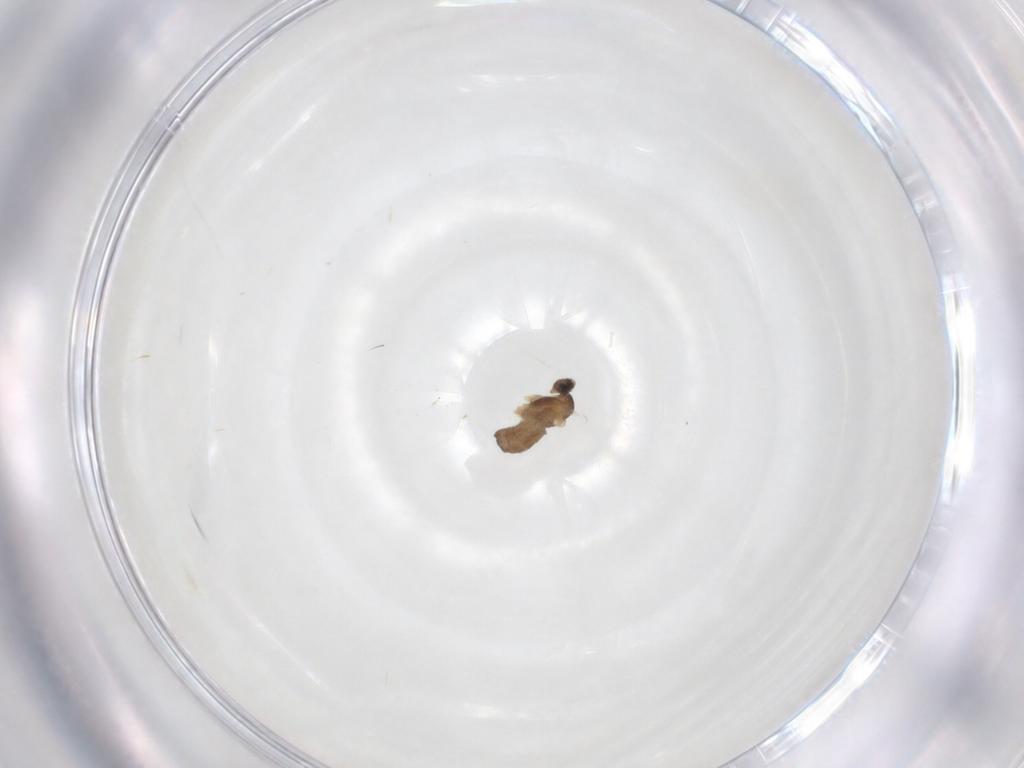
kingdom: Animalia
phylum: Arthropoda
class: Insecta
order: Diptera
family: Cecidomyiidae
